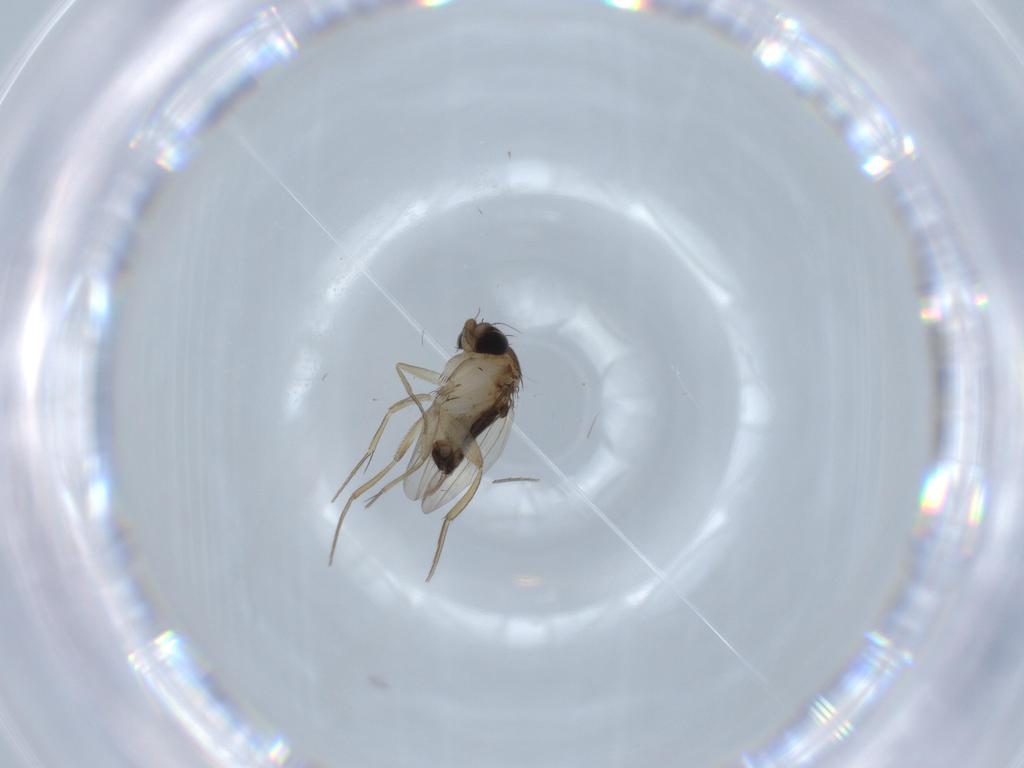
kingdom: Animalia
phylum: Arthropoda
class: Insecta
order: Diptera
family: Phoridae
